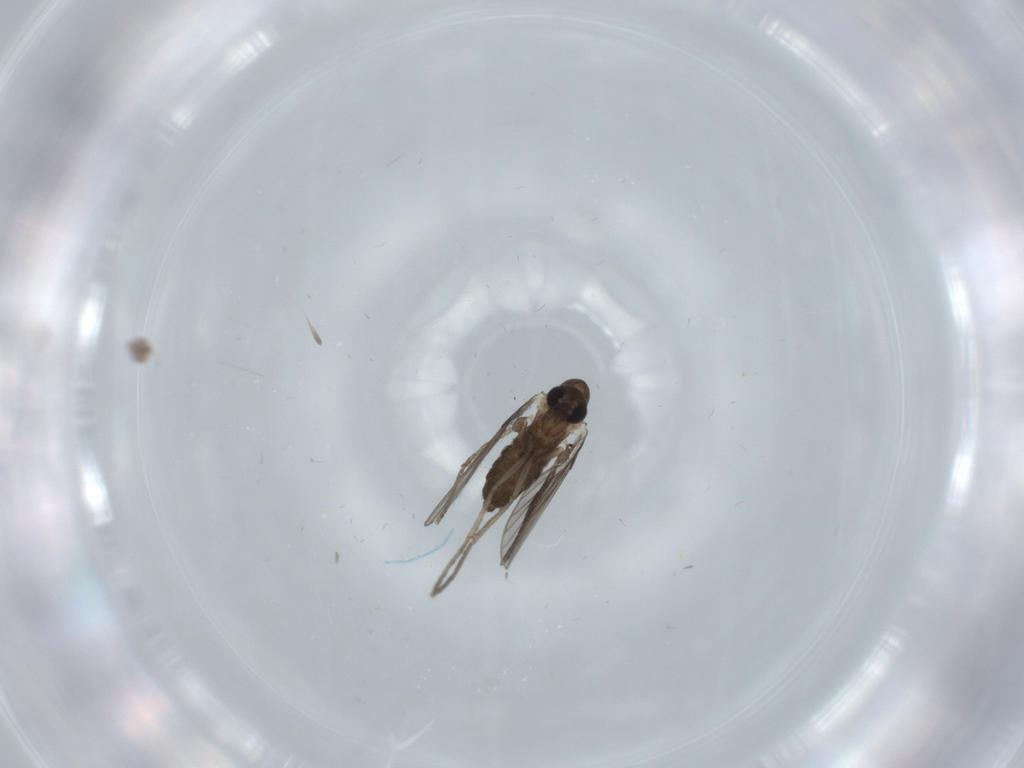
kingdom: Animalia
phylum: Arthropoda
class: Insecta
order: Diptera
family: Psychodidae
